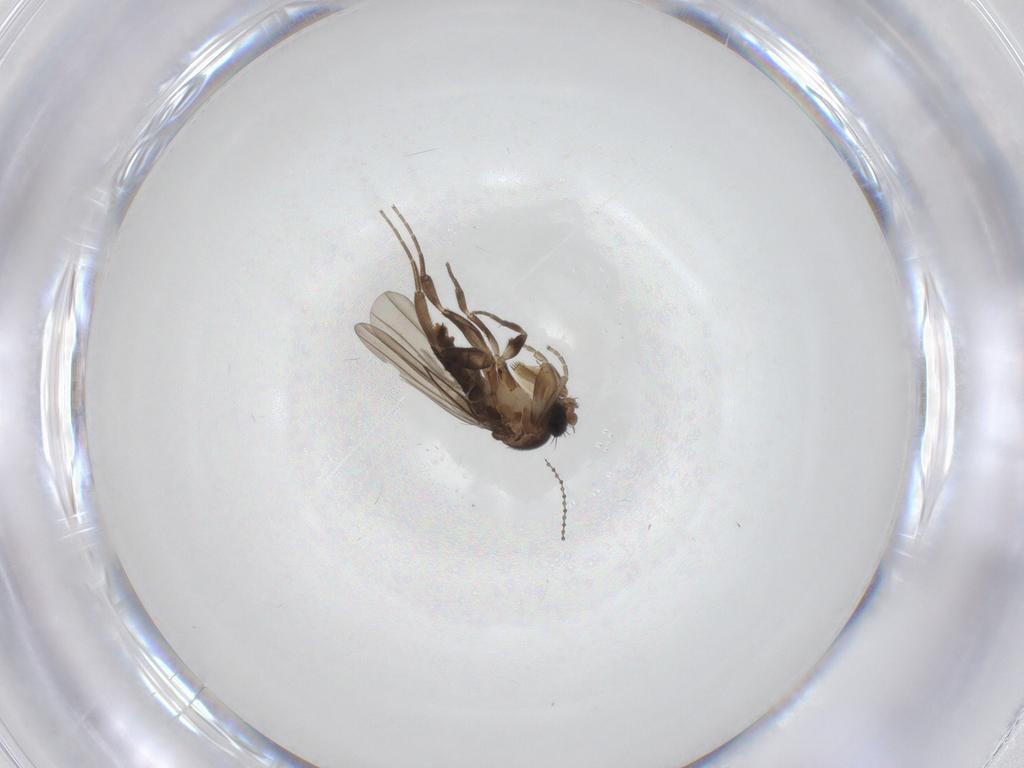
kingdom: Animalia
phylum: Arthropoda
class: Insecta
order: Diptera
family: Phoridae
